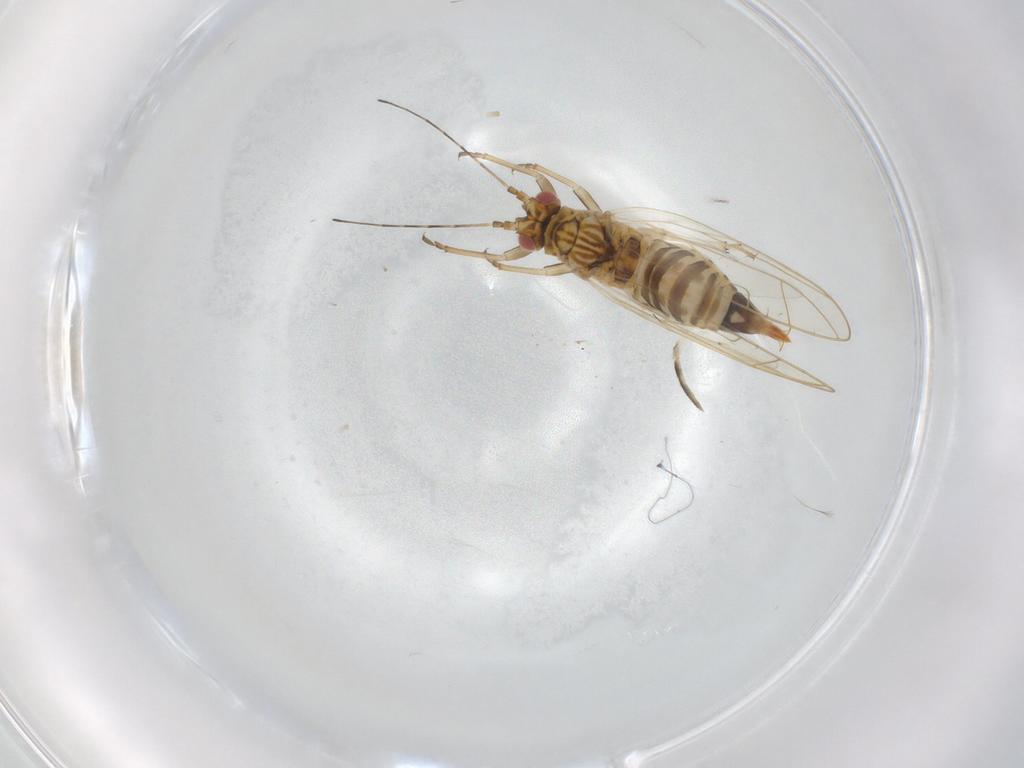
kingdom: Animalia
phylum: Arthropoda
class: Insecta
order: Hemiptera
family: Carsidaridae
